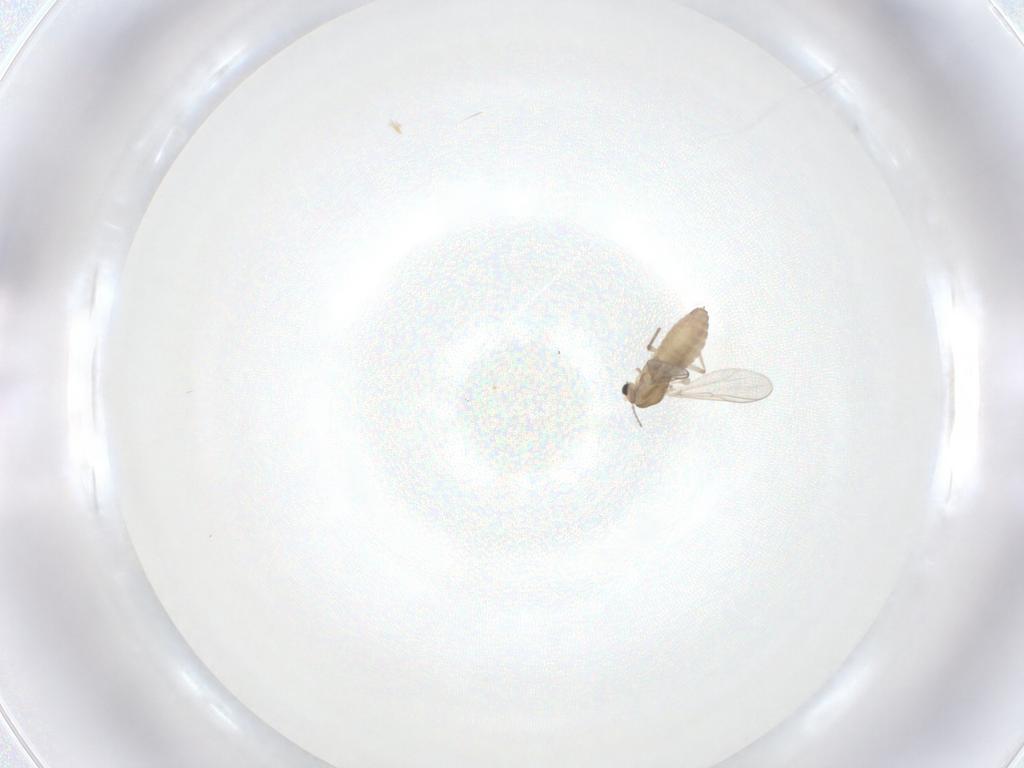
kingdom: Animalia
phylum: Arthropoda
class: Insecta
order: Diptera
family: Chironomidae
